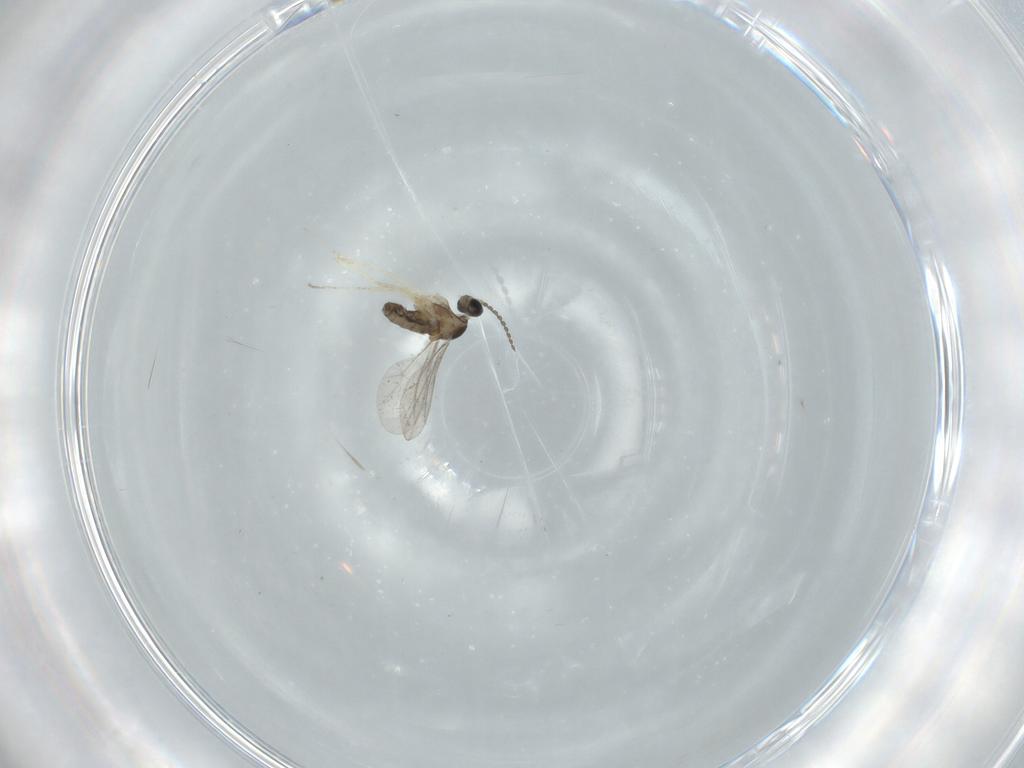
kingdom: Animalia
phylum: Arthropoda
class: Insecta
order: Diptera
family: Cecidomyiidae
